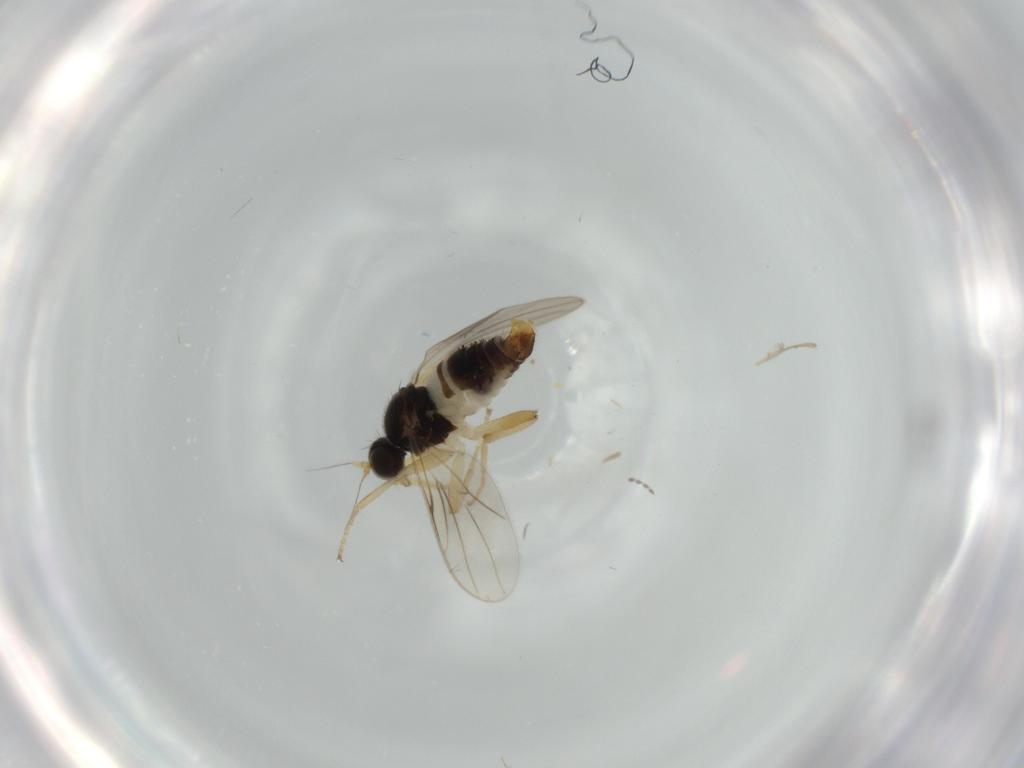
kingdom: Animalia
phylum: Arthropoda
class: Insecta
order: Diptera
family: Hybotidae
